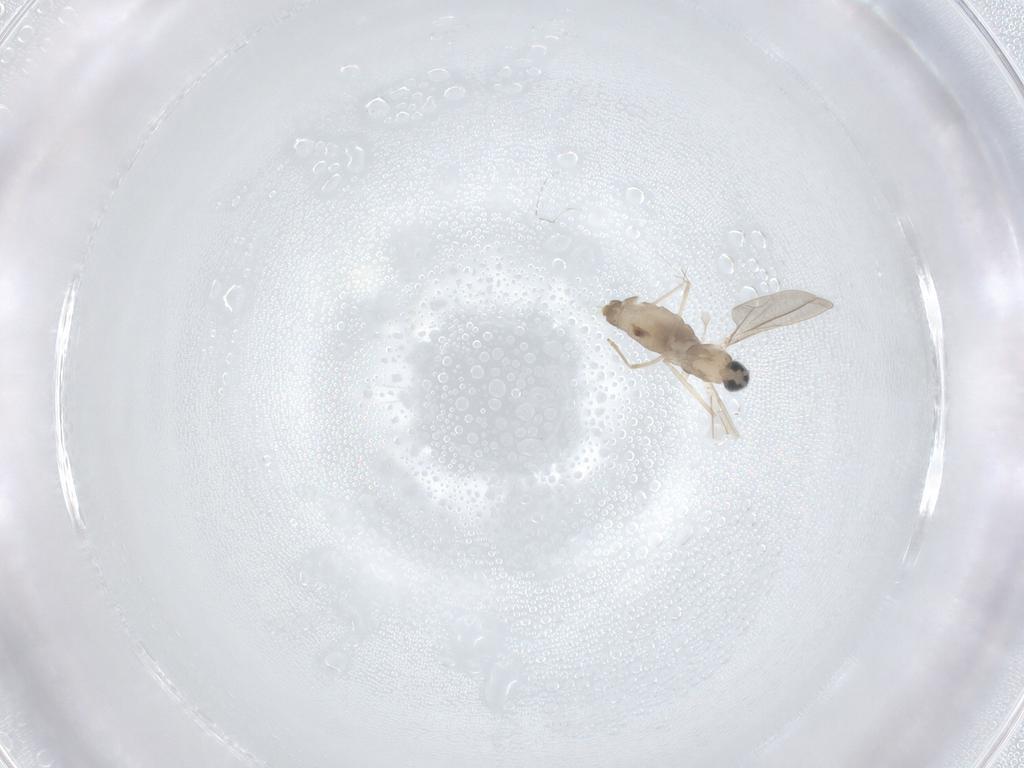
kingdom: Animalia
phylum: Arthropoda
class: Insecta
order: Diptera
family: Cecidomyiidae
